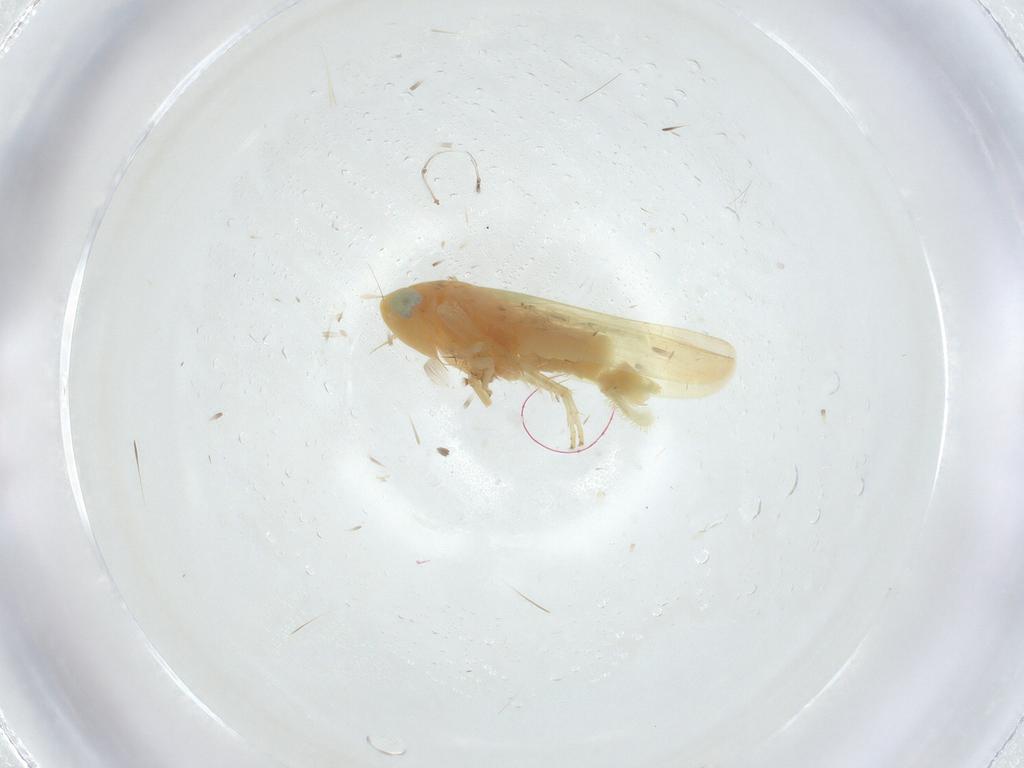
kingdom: Animalia
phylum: Arthropoda
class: Insecta
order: Hemiptera
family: Cicadellidae
